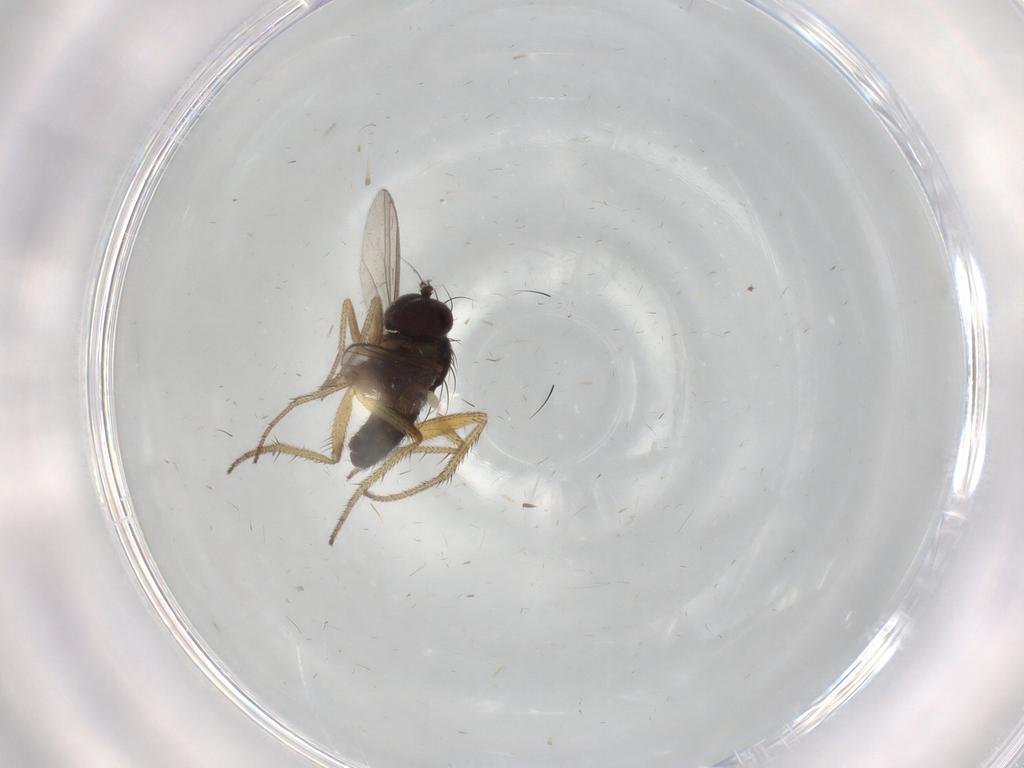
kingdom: Animalia
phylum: Arthropoda
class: Insecta
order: Diptera
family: Dolichopodidae
